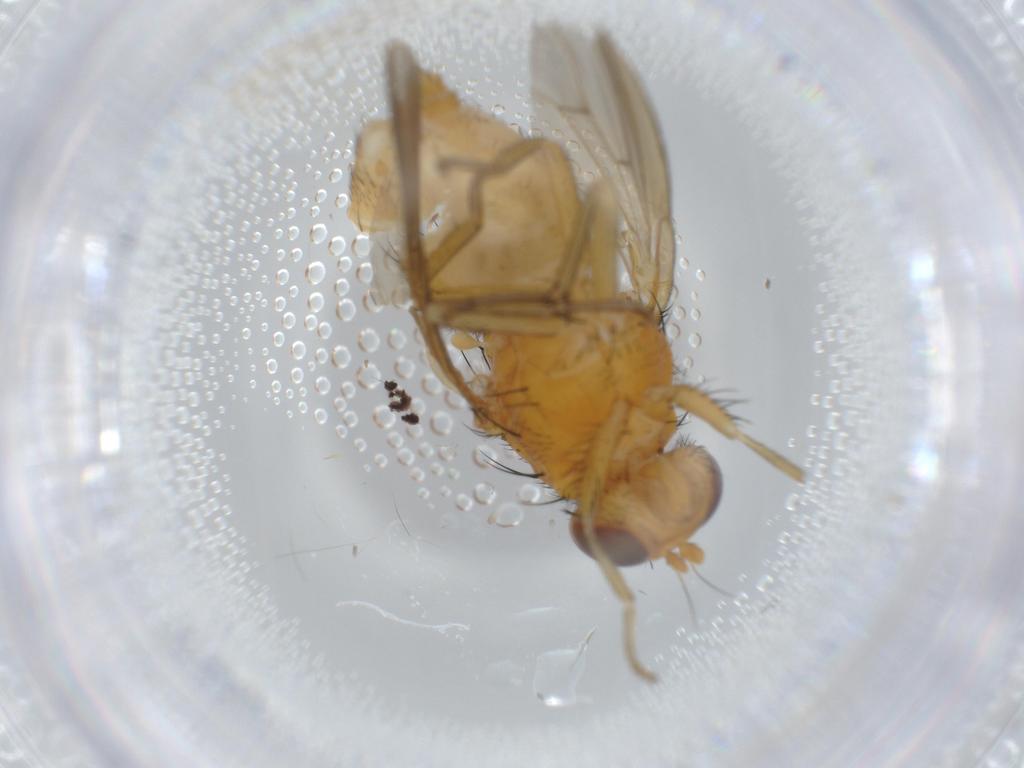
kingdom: Animalia
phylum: Arthropoda
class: Insecta
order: Diptera
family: Lauxaniidae
